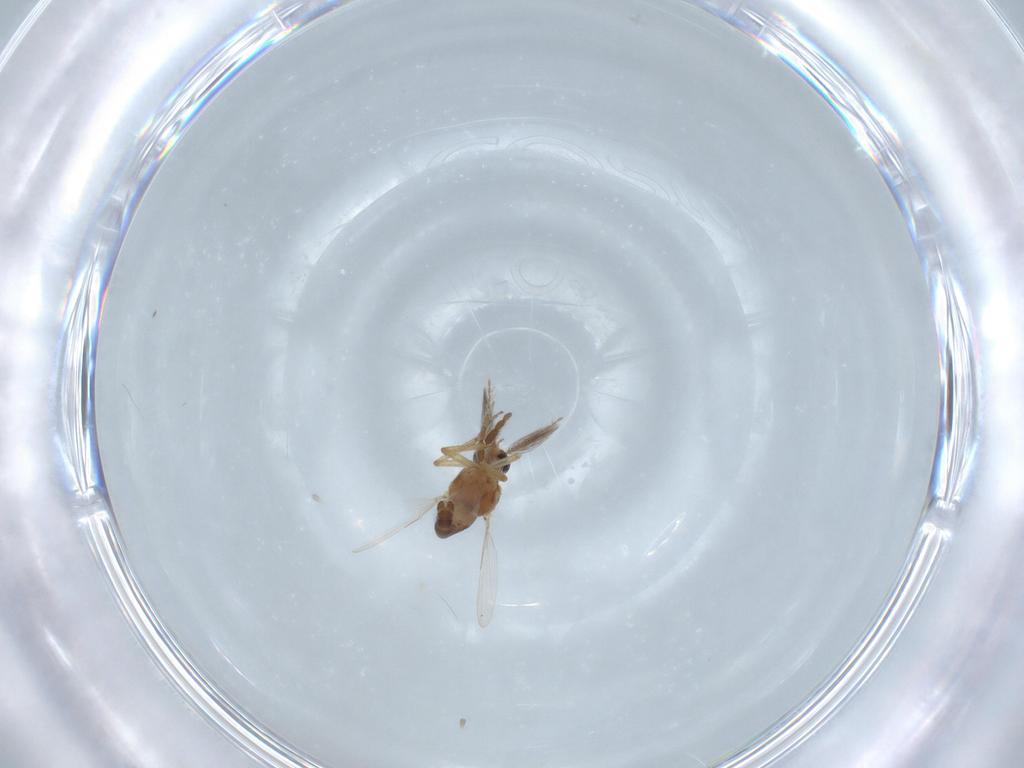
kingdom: Animalia
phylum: Arthropoda
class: Insecta
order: Diptera
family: Ceratopogonidae
